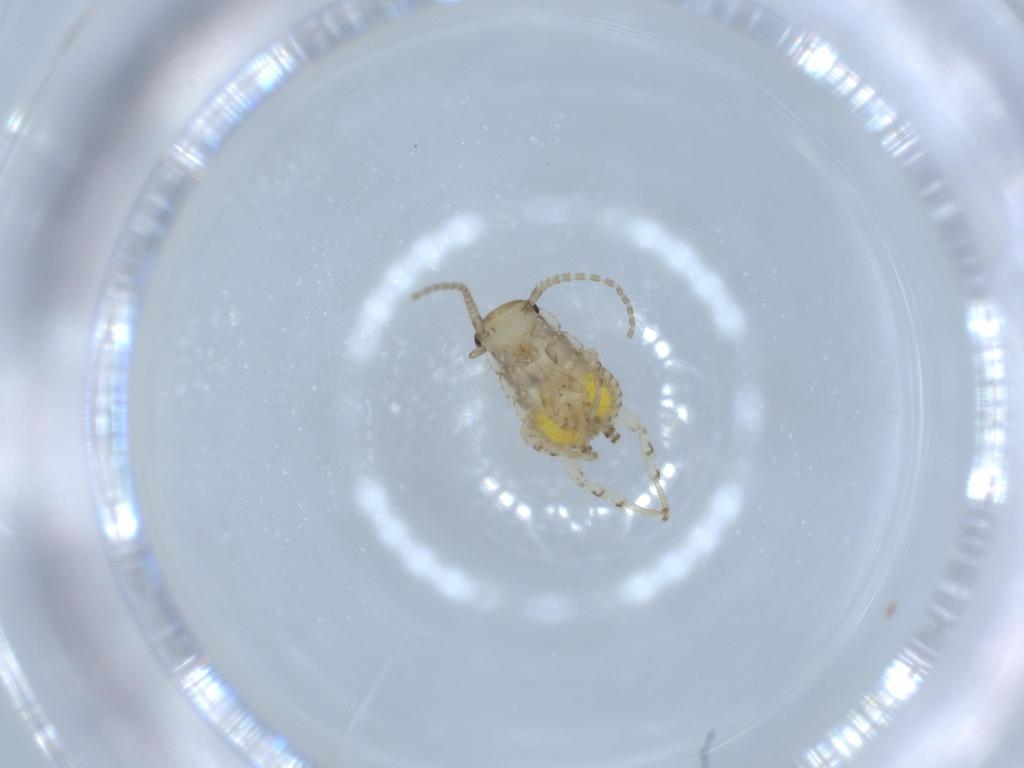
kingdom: Animalia
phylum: Arthropoda
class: Insecta
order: Blattodea
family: Ectobiidae
